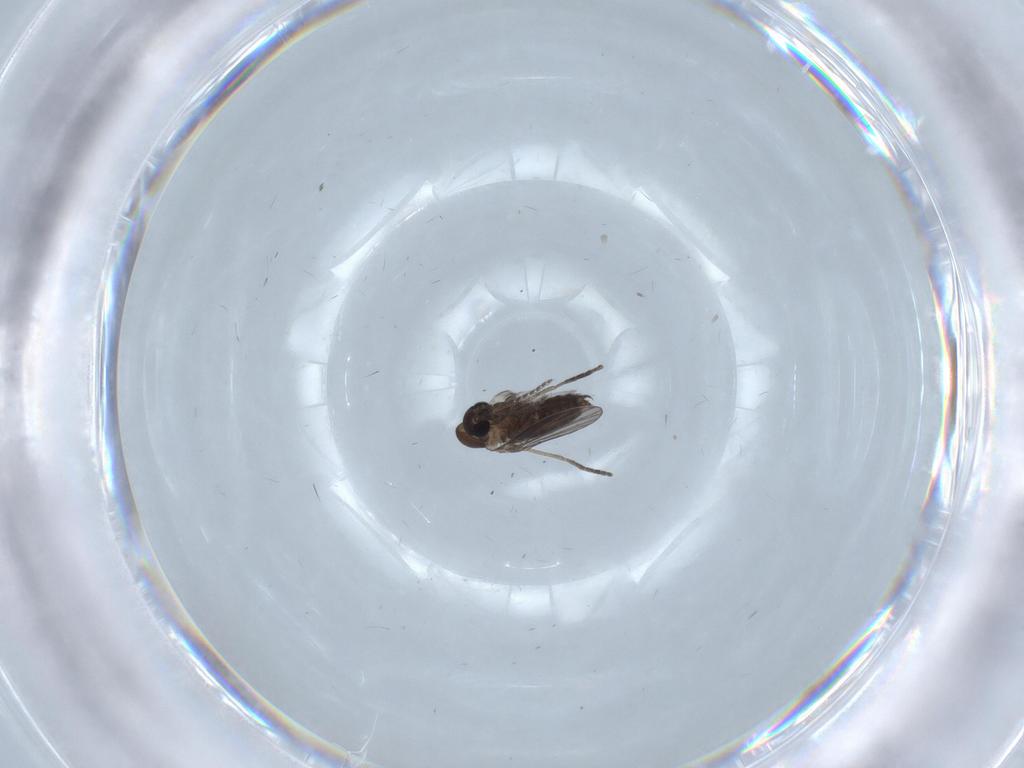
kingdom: Animalia
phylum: Arthropoda
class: Insecta
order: Diptera
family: Psychodidae
